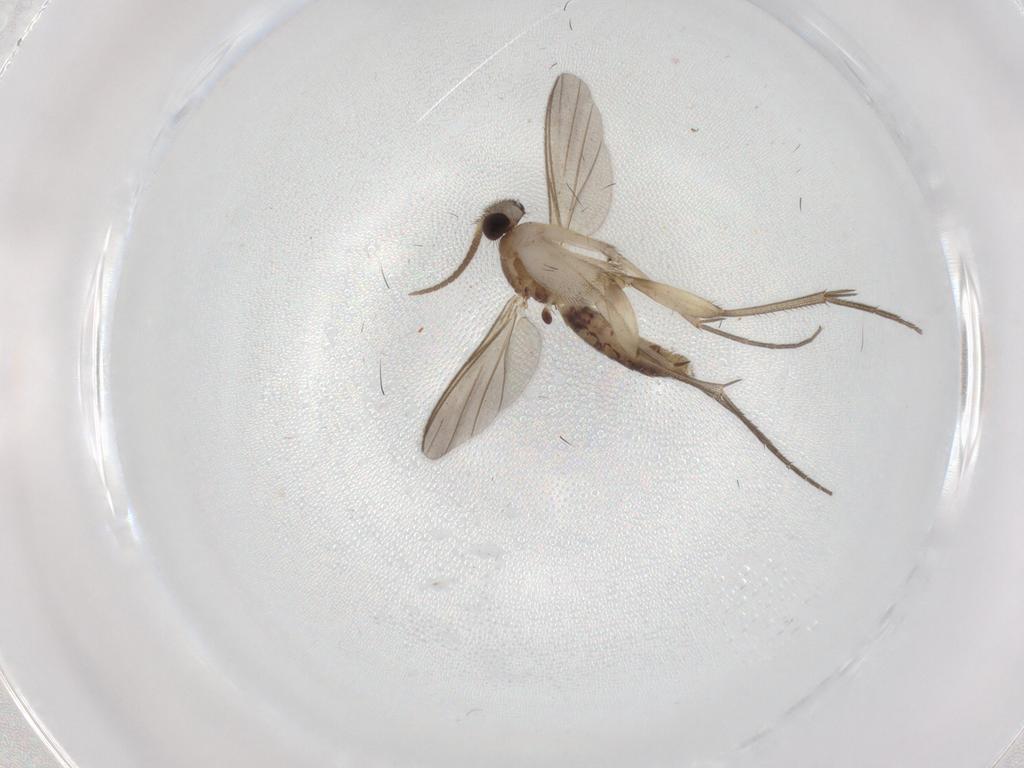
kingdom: Animalia
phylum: Arthropoda
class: Insecta
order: Diptera
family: Mycetophilidae
